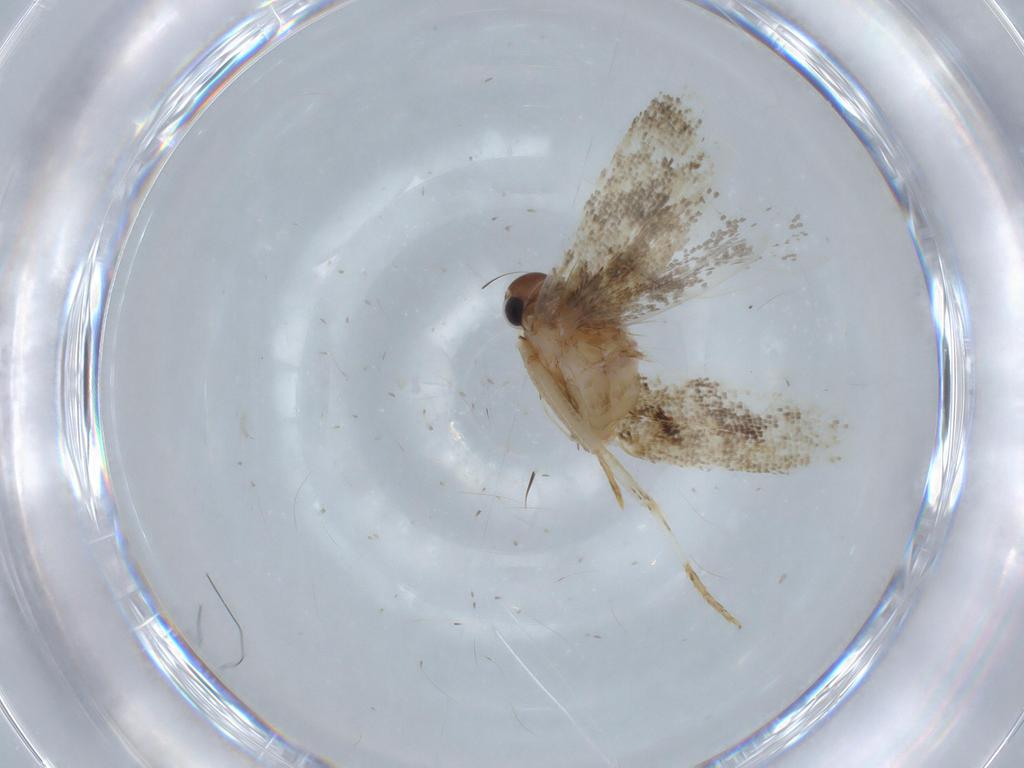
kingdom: Animalia
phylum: Arthropoda
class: Insecta
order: Lepidoptera
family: Gelechiidae
